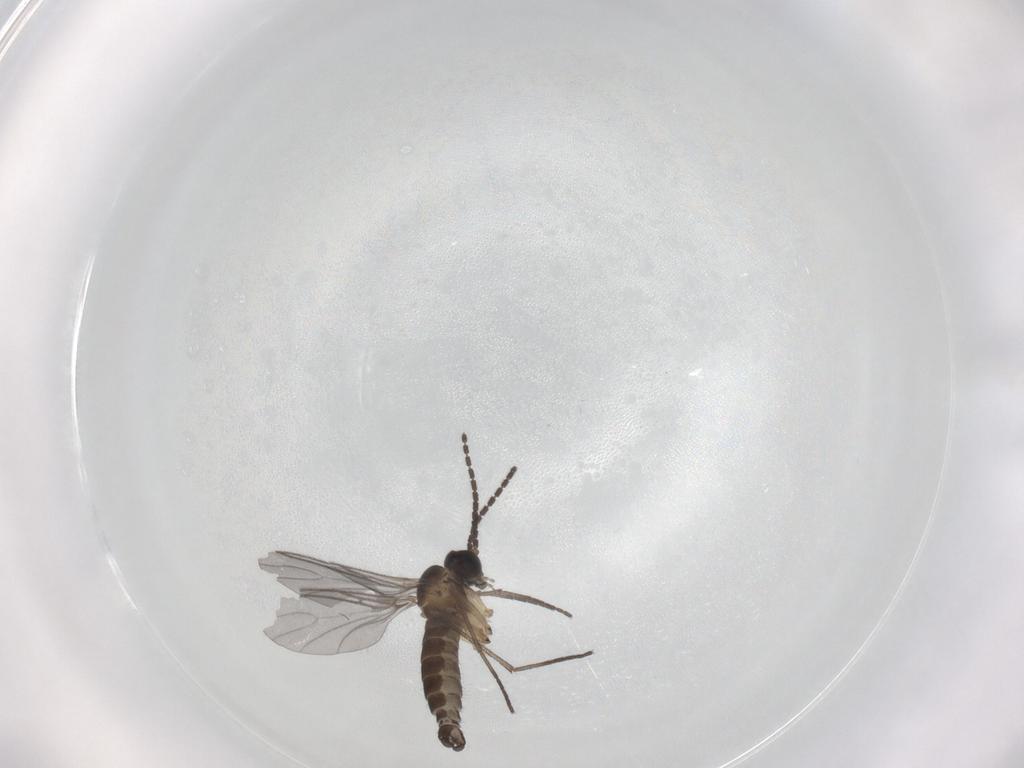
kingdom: Animalia
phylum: Arthropoda
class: Insecta
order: Diptera
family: Sciaridae
